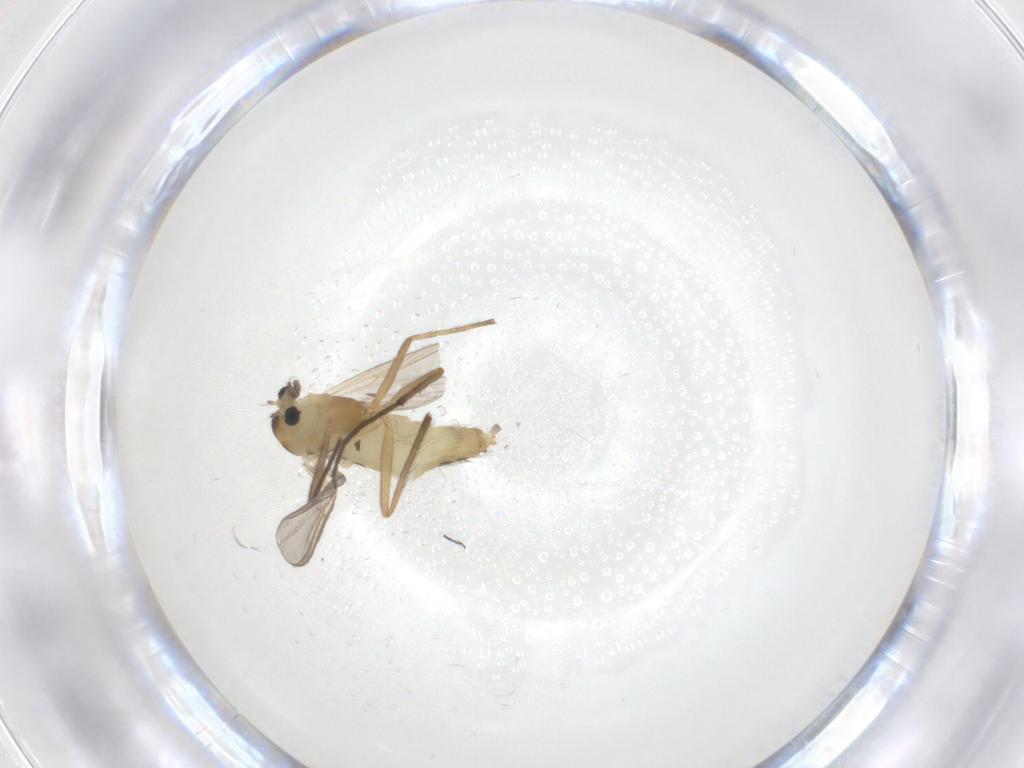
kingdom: Animalia
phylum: Arthropoda
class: Insecta
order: Diptera
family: Chironomidae
